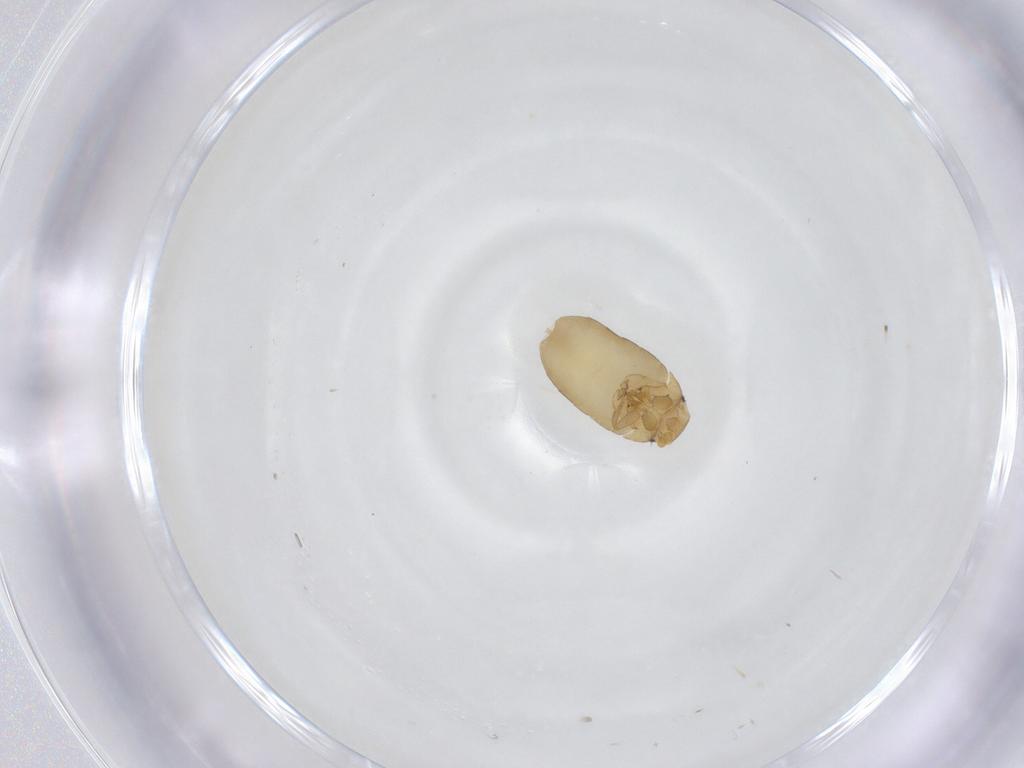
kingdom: Animalia
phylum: Arthropoda
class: Insecta
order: Diptera
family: Phoridae
